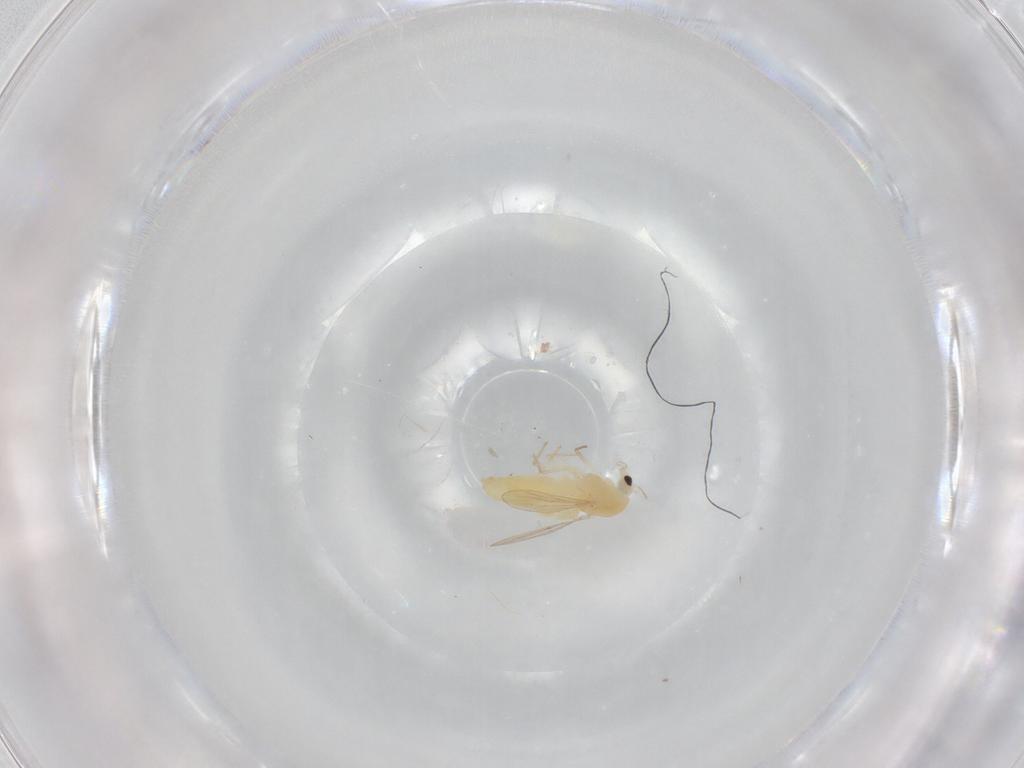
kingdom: Animalia
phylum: Arthropoda
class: Insecta
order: Diptera
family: Chironomidae
